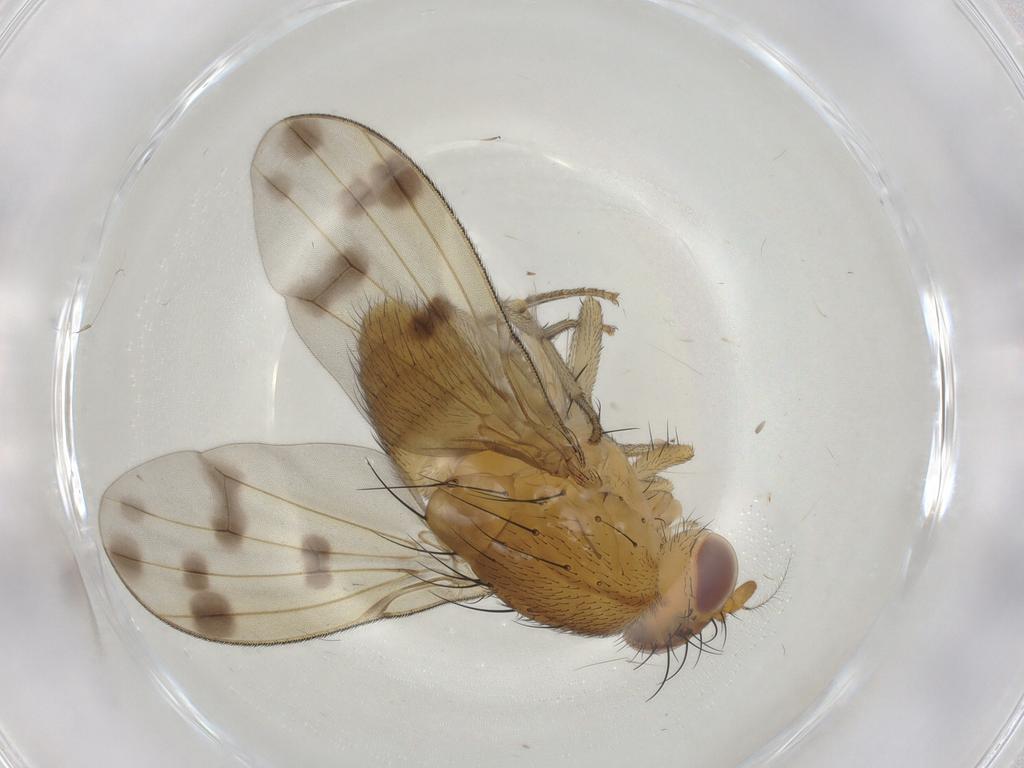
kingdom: Animalia
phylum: Arthropoda
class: Insecta
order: Diptera
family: Keroplatidae
